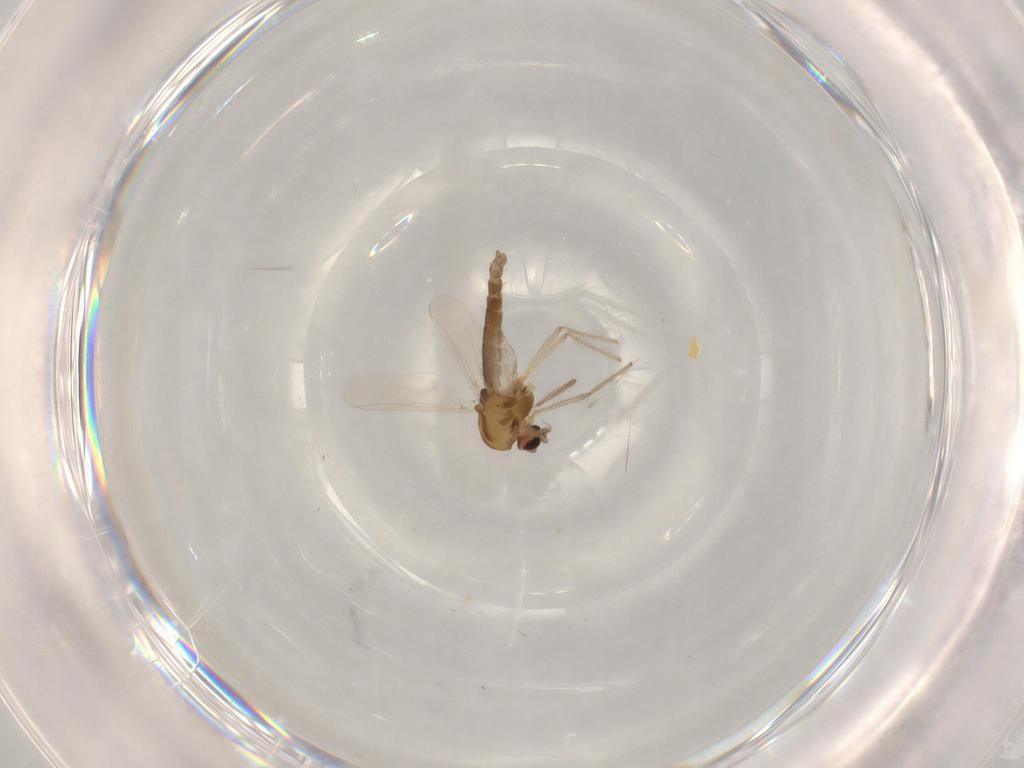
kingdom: Animalia
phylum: Arthropoda
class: Insecta
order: Diptera
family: Chironomidae
